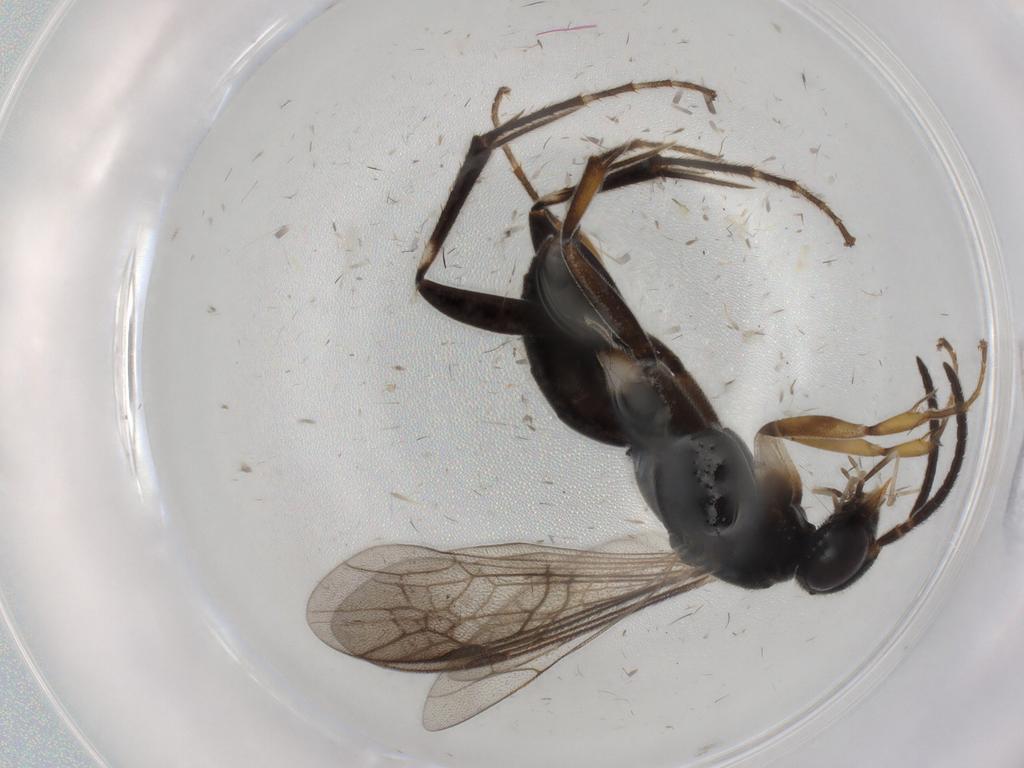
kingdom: Animalia
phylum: Arthropoda
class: Insecta
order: Hymenoptera
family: Pompilidae
